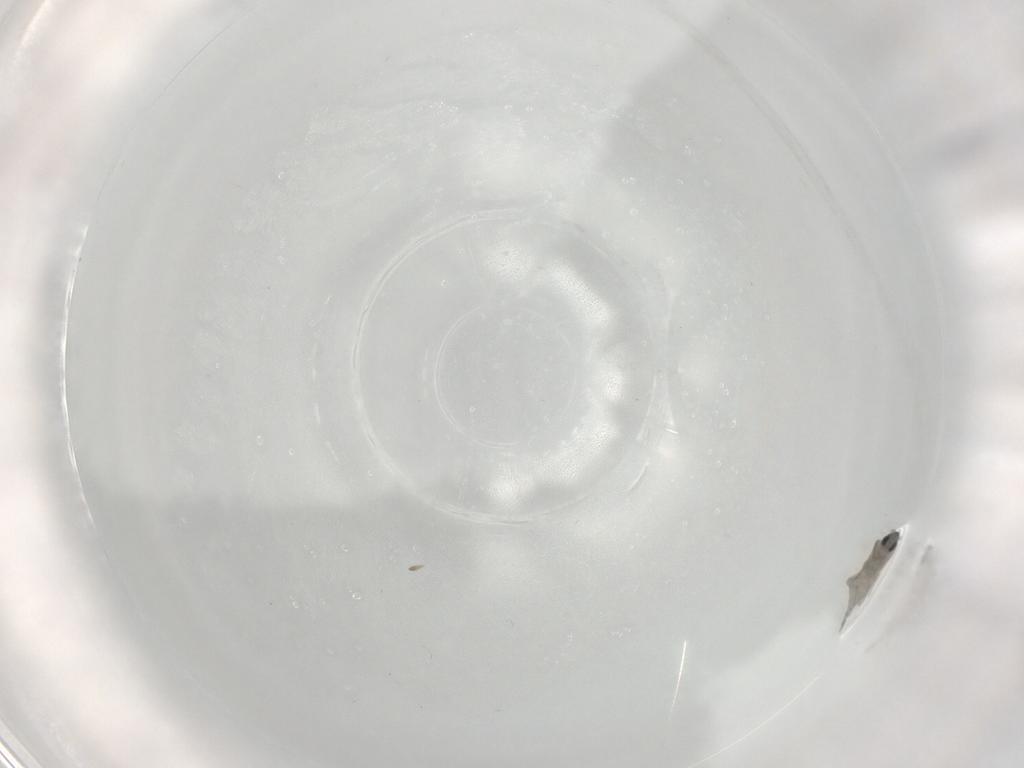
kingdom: Animalia
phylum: Arthropoda
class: Insecta
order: Diptera
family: Cecidomyiidae
